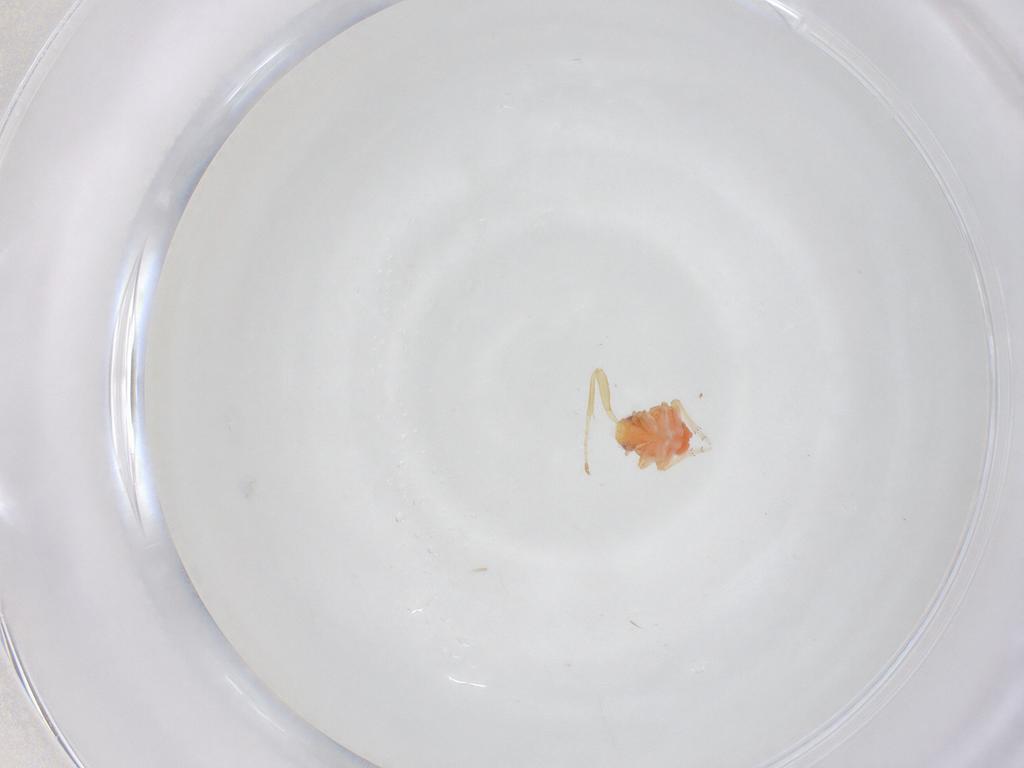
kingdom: Animalia
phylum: Arthropoda
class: Insecta
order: Hemiptera
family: Issidae
